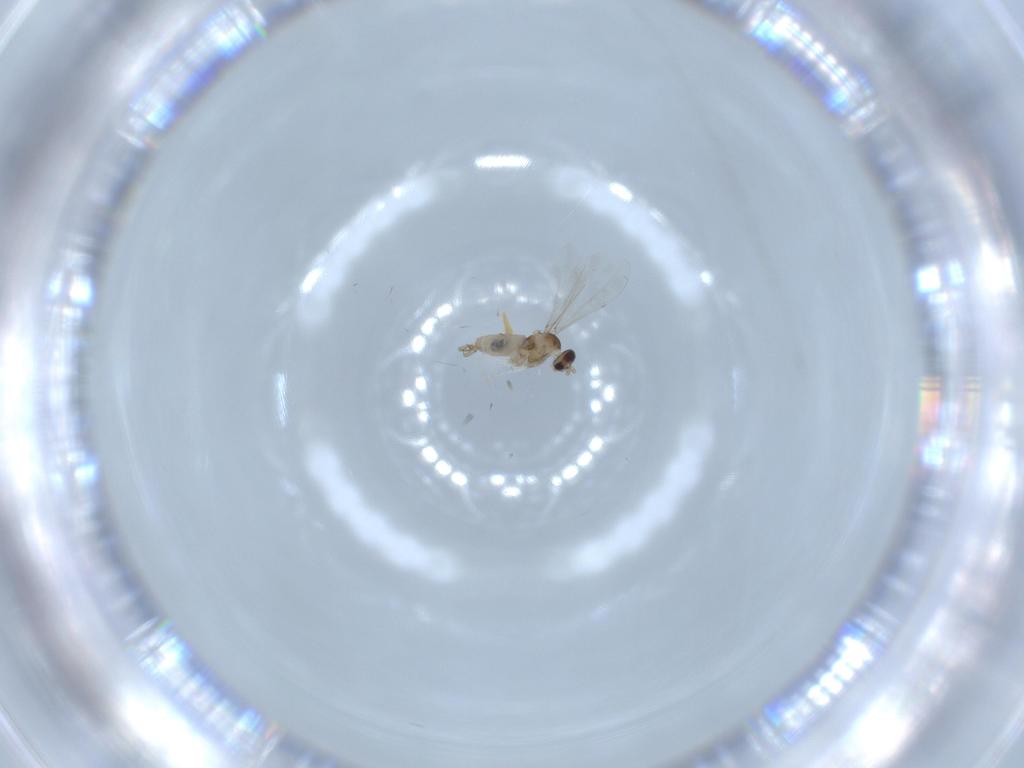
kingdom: Animalia
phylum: Arthropoda
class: Insecta
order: Diptera
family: Cecidomyiidae
